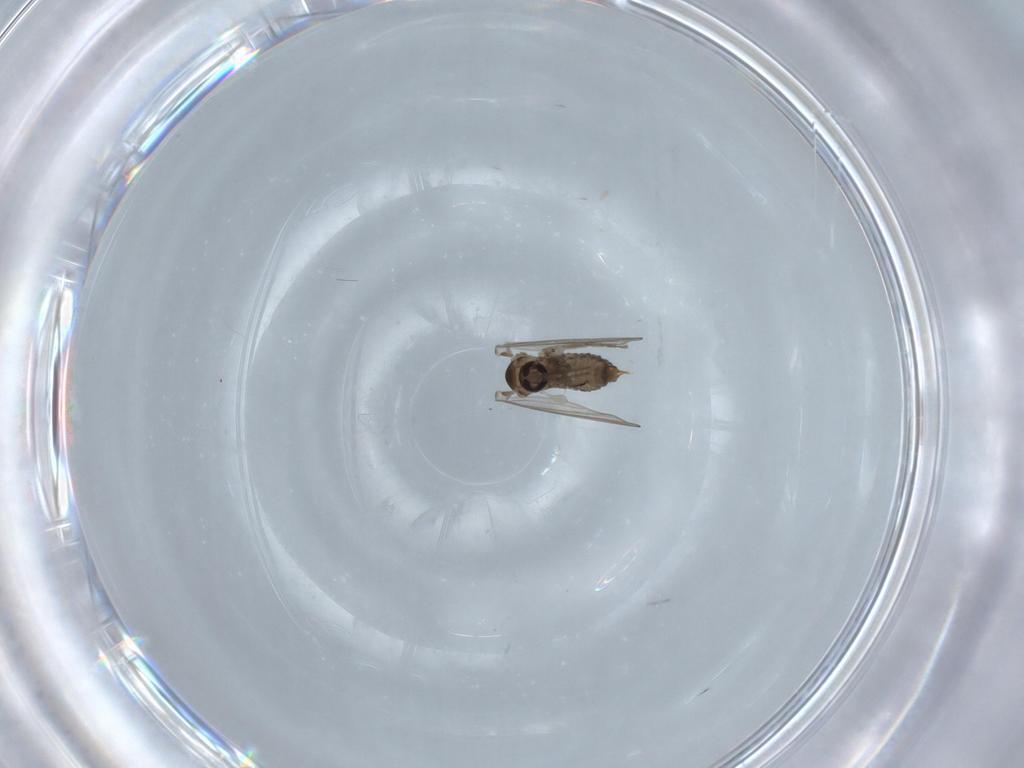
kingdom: Animalia
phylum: Arthropoda
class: Insecta
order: Diptera
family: Psychodidae
